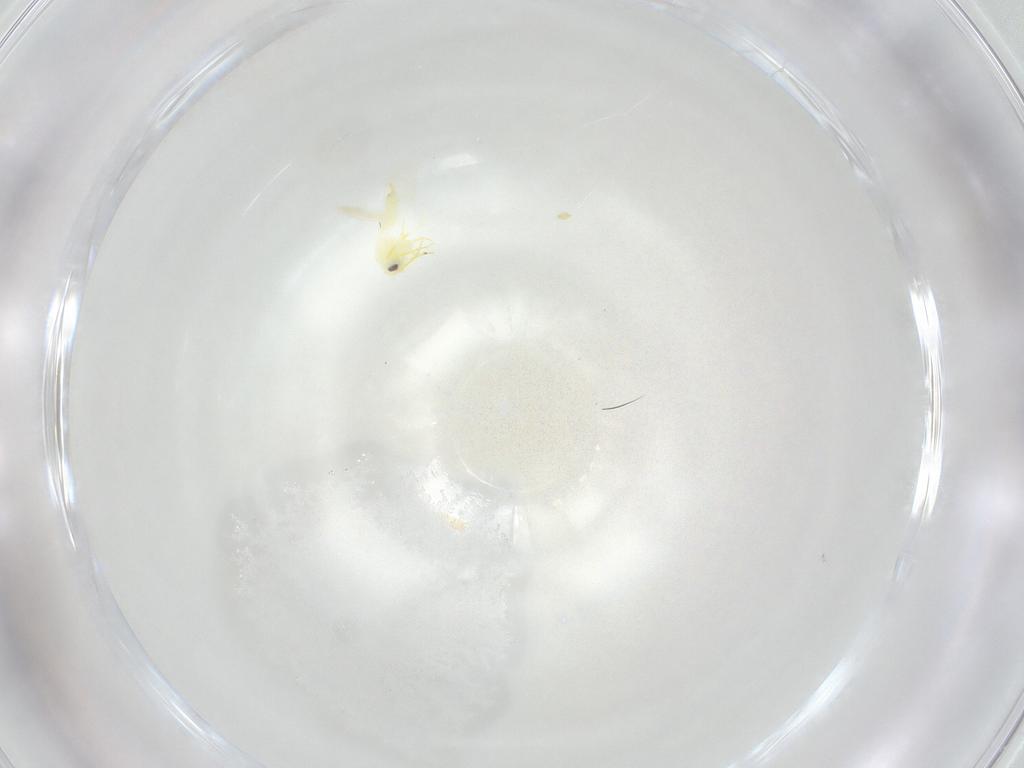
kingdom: Animalia
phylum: Arthropoda
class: Insecta
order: Hemiptera
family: Aleyrodidae
